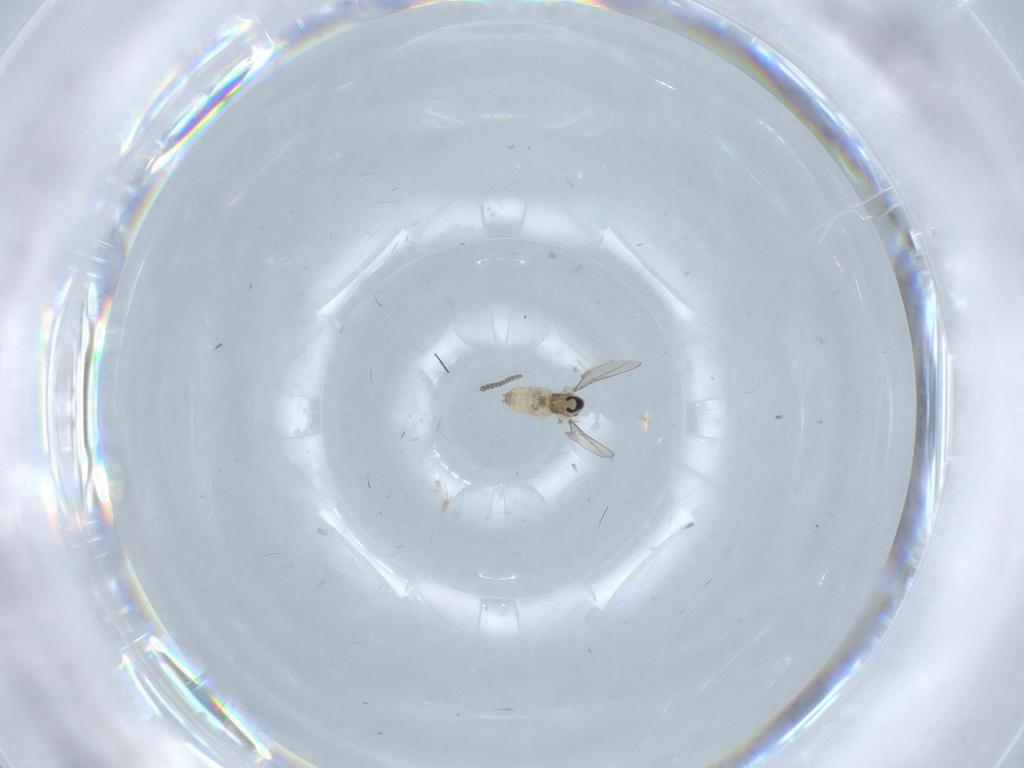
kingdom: Animalia
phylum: Arthropoda
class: Insecta
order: Diptera
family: Cecidomyiidae
